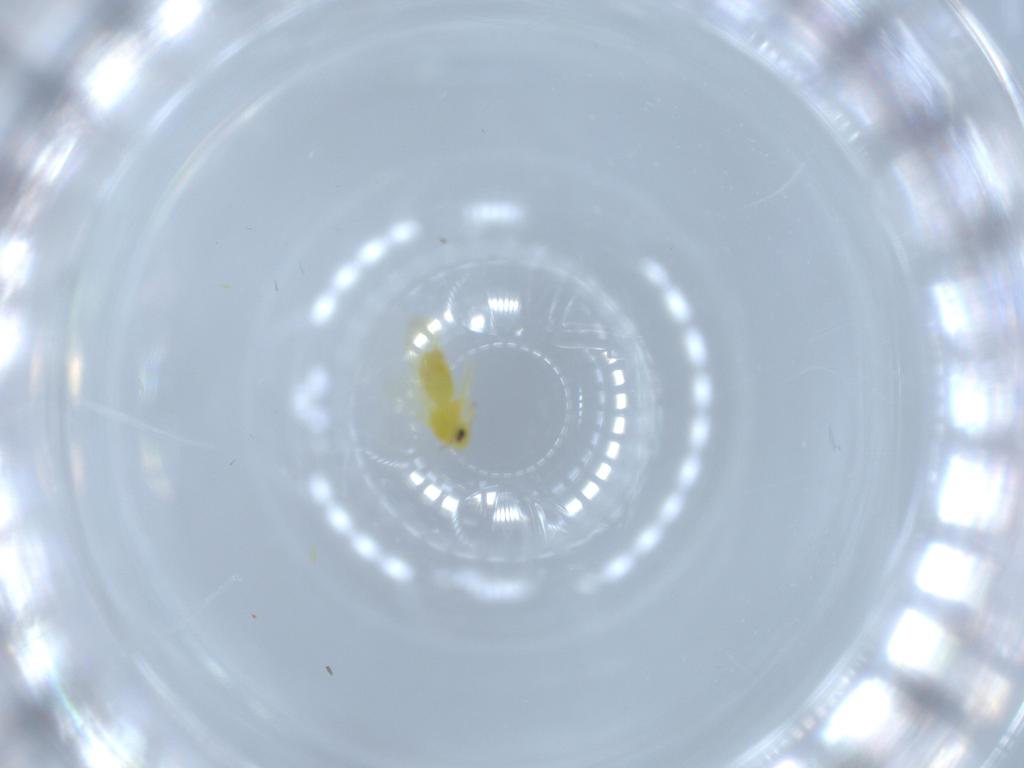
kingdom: Animalia
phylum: Arthropoda
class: Insecta
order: Hemiptera
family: Aleyrodidae
